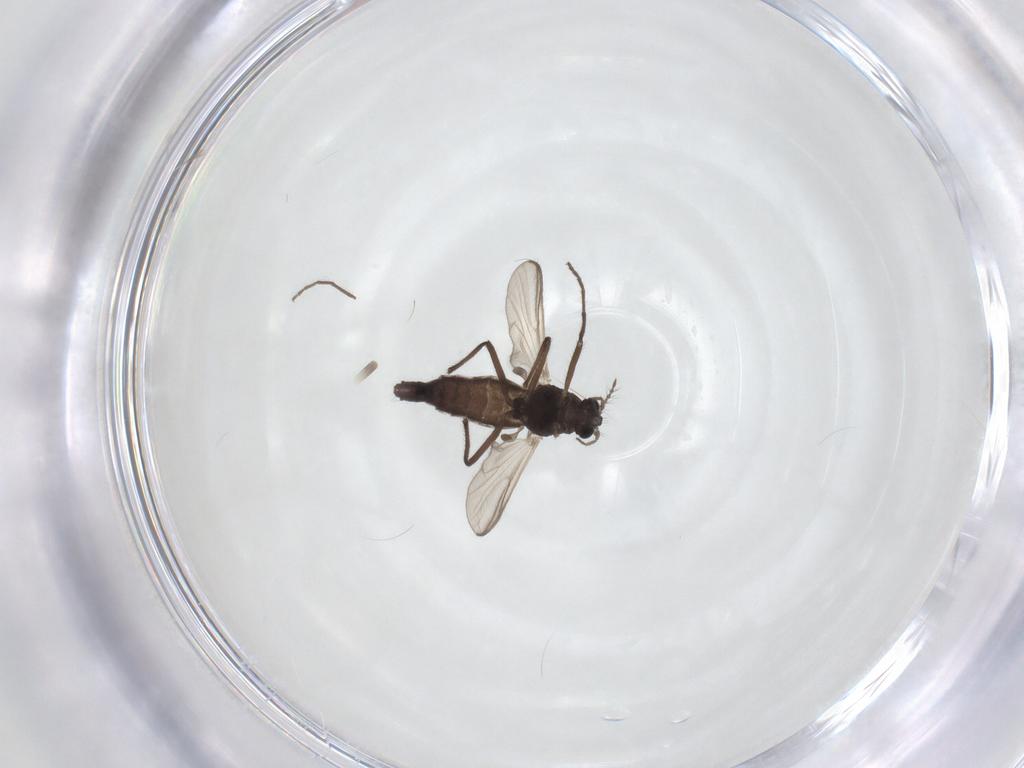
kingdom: Animalia
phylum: Arthropoda
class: Insecta
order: Diptera
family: Chironomidae
